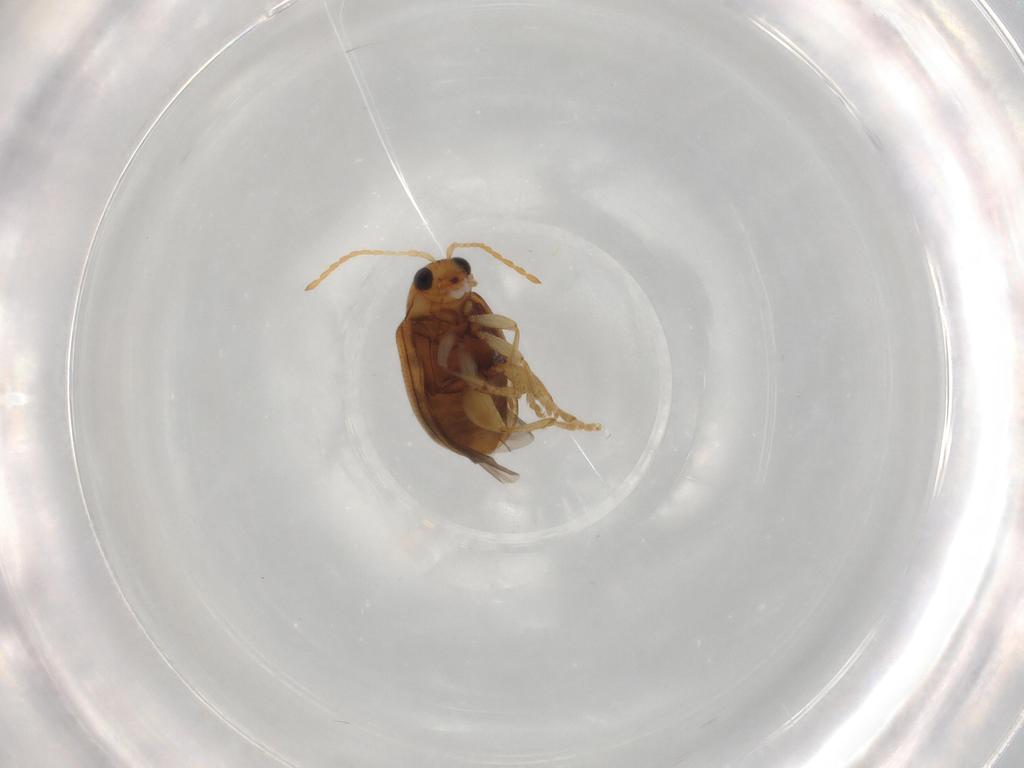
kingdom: Animalia
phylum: Arthropoda
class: Insecta
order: Coleoptera
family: Chrysomelidae
